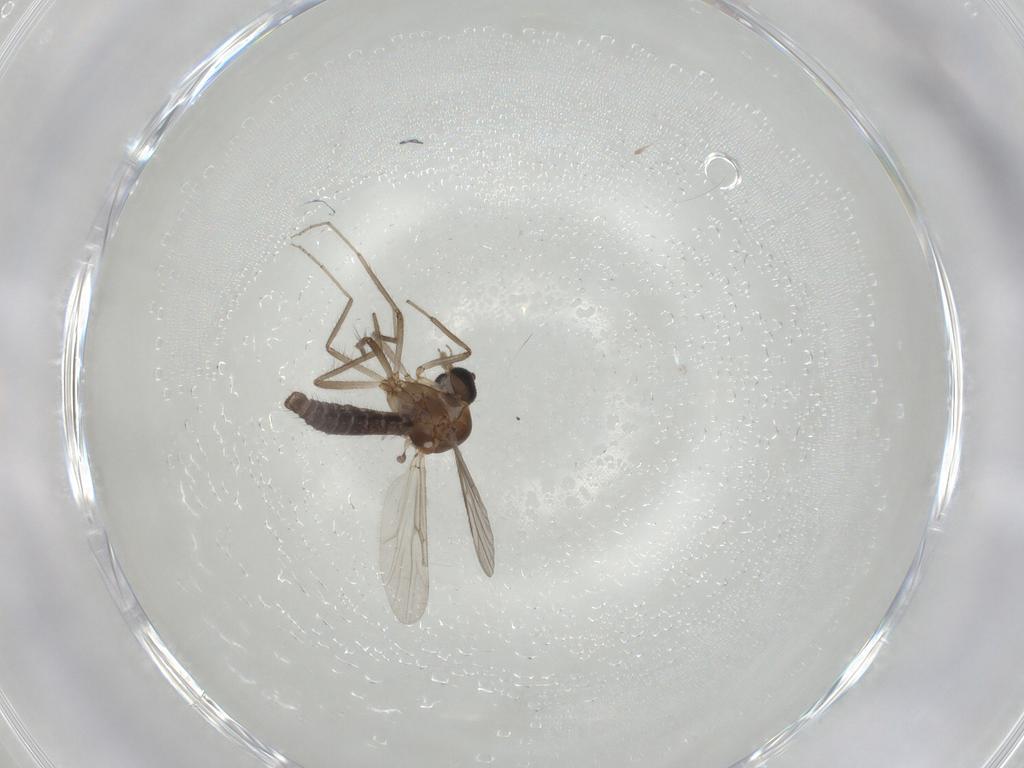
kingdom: Animalia
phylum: Arthropoda
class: Insecta
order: Diptera
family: Ceratopogonidae
